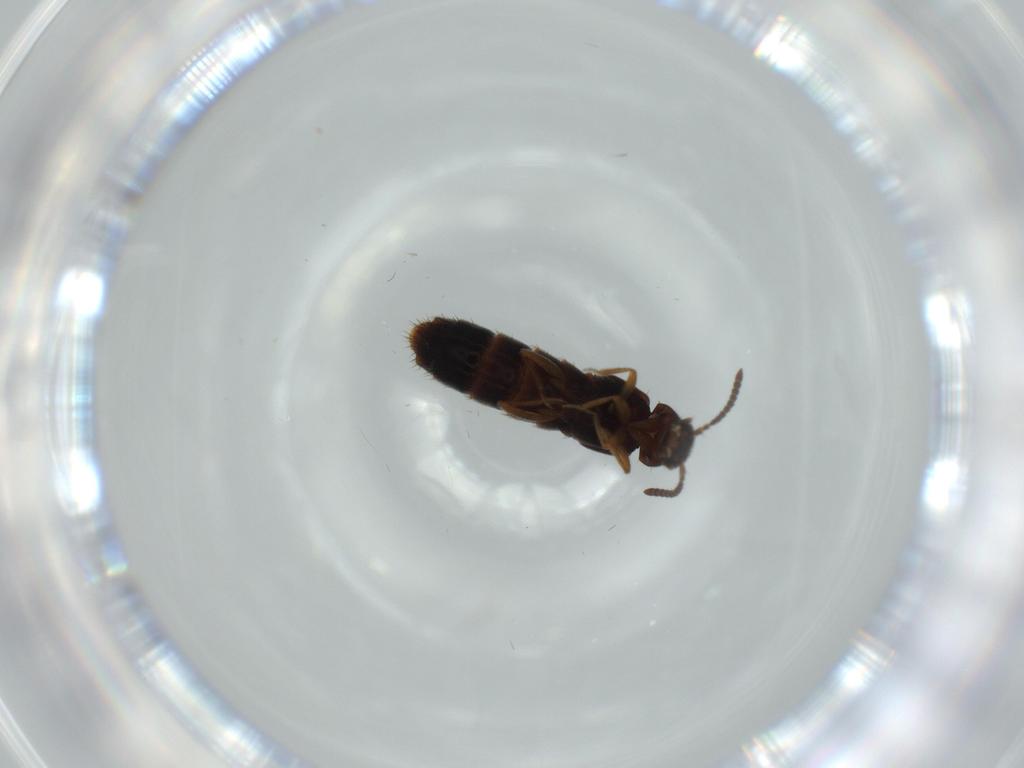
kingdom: Animalia
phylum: Arthropoda
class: Insecta
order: Coleoptera
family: Chrysomelidae
